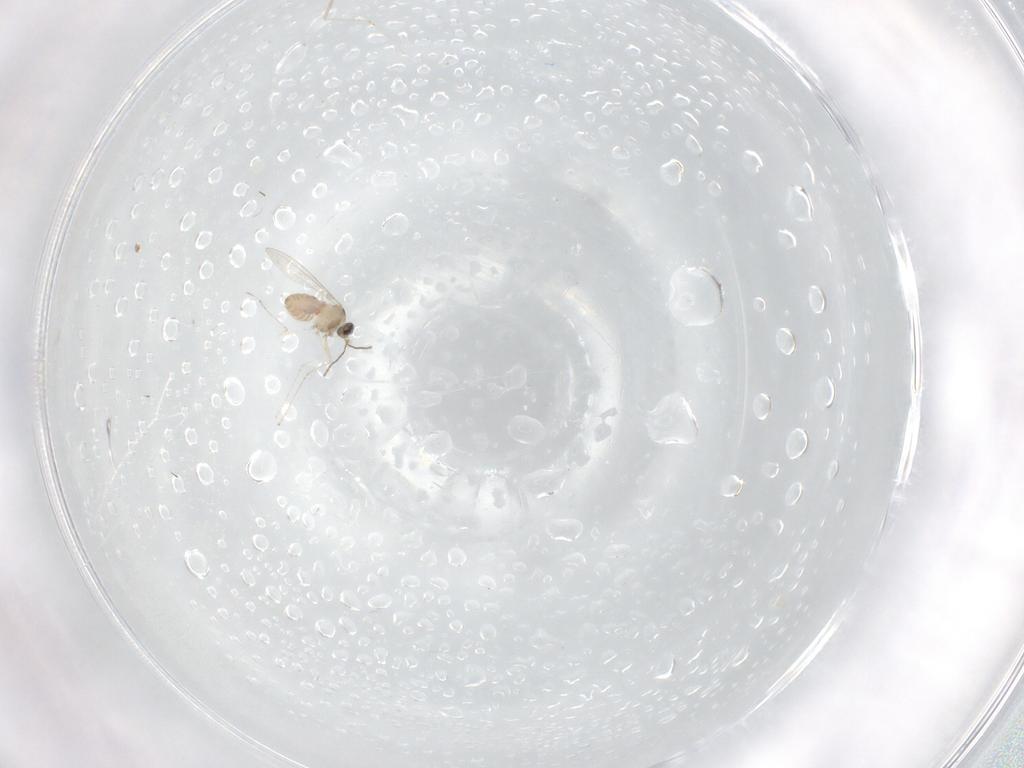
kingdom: Animalia
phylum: Arthropoda
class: Insecta
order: Diptera
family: Cecidomyiidae
